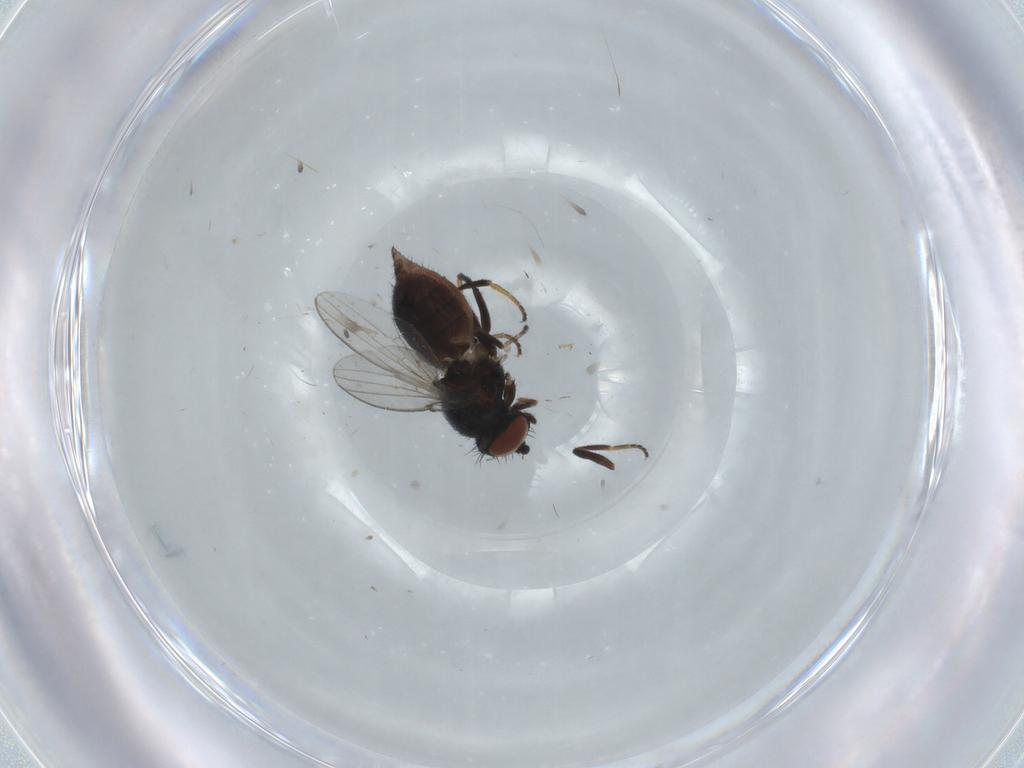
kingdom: Animalia
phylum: Arthropoda
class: Insecta
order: Diptera
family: Milichiidae
